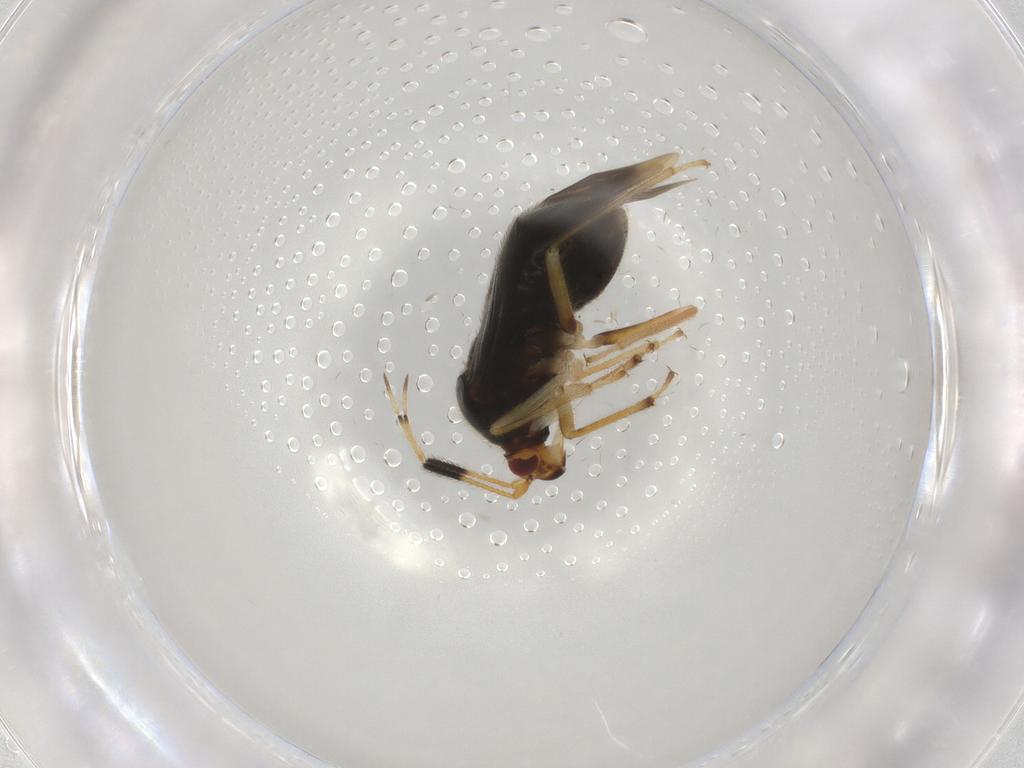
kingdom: Animalia
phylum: Arthropoda
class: Insecta
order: Hemiptera
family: Miridae
